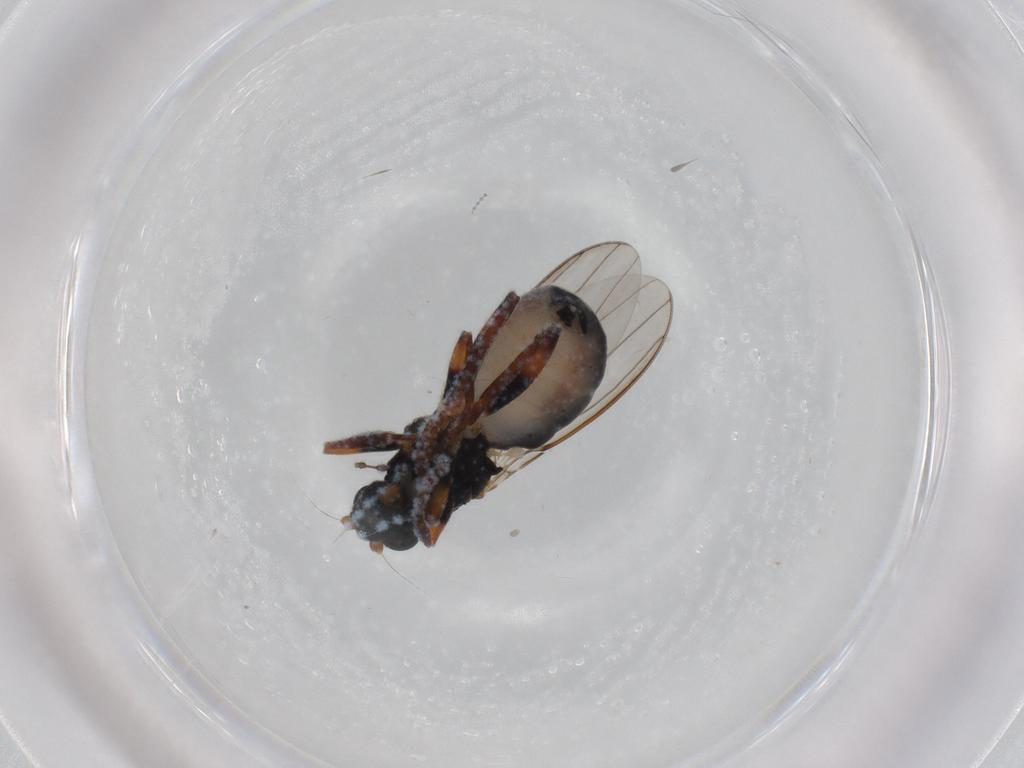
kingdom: Animalia
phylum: Arthropoda
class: Insecta
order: Diptera
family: Sphaeroceridae
